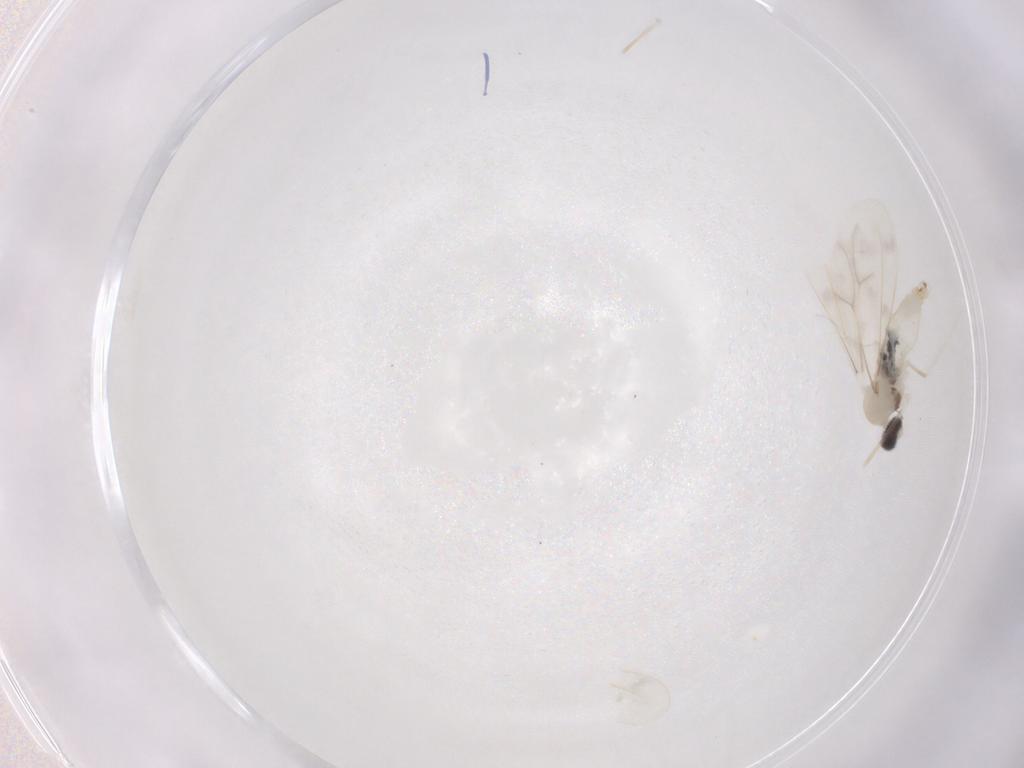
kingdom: Animalia
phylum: Arthropoda
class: Insecta
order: Diptera
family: Cecidomyiidae
